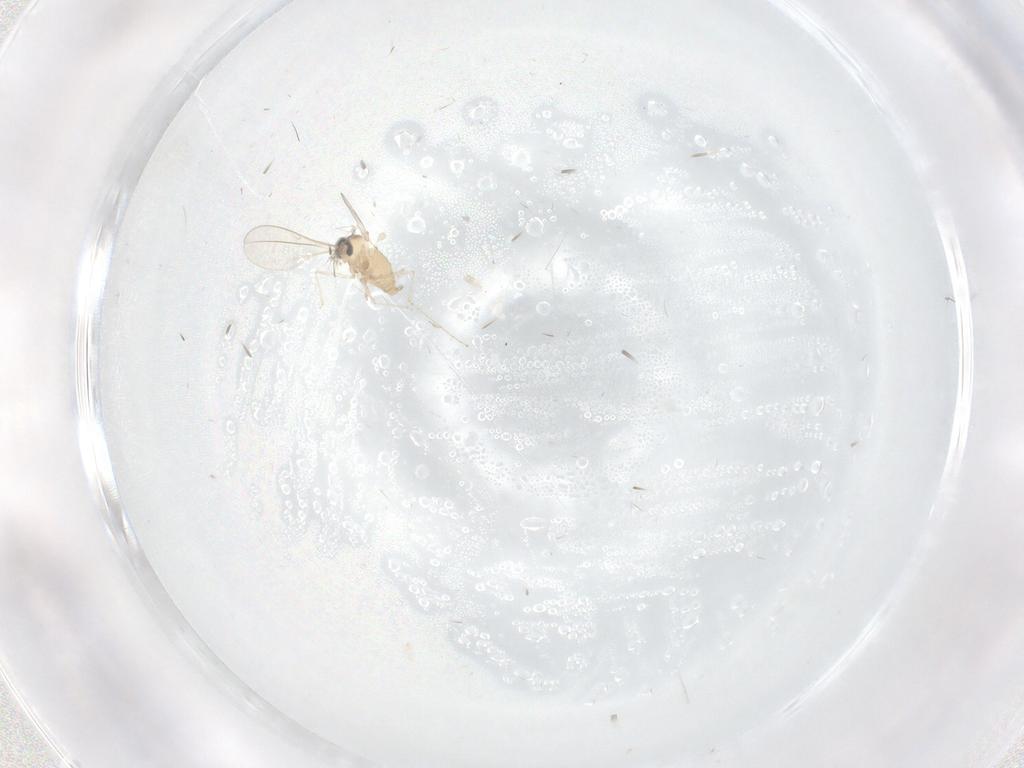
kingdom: Animalia
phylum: Arthropoda
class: Insecta
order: Diptera
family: Cecidomyiidae
